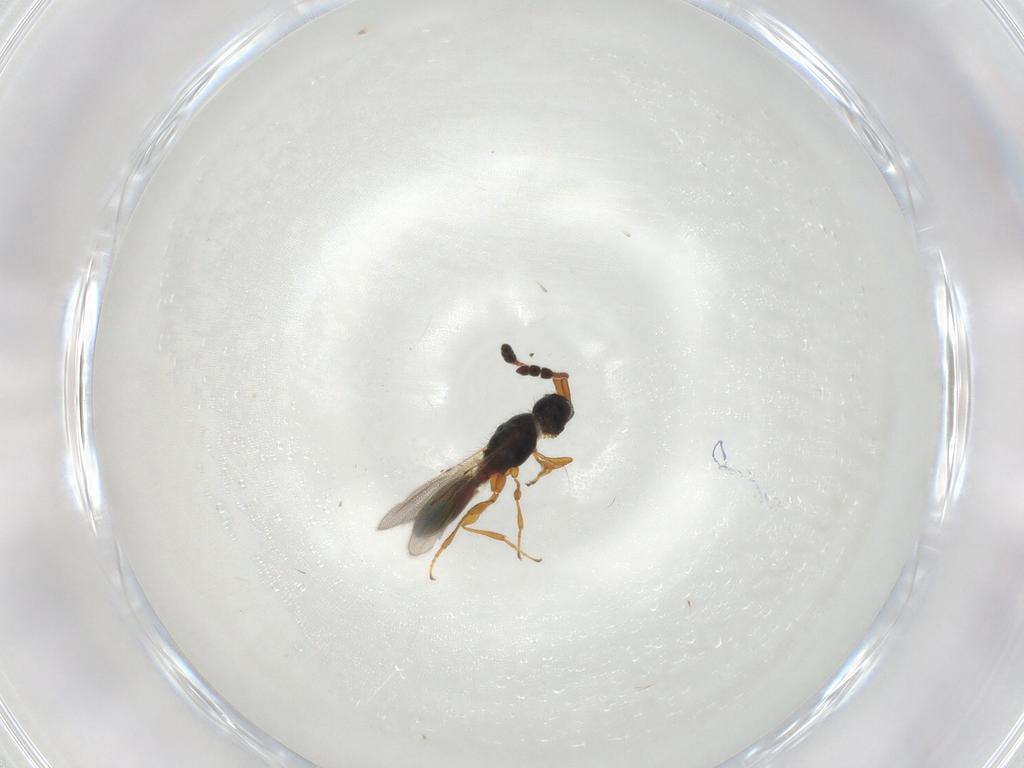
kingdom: Animalia
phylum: Arthropoda
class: Insecta
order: Hymenoptera
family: Diapriidae
